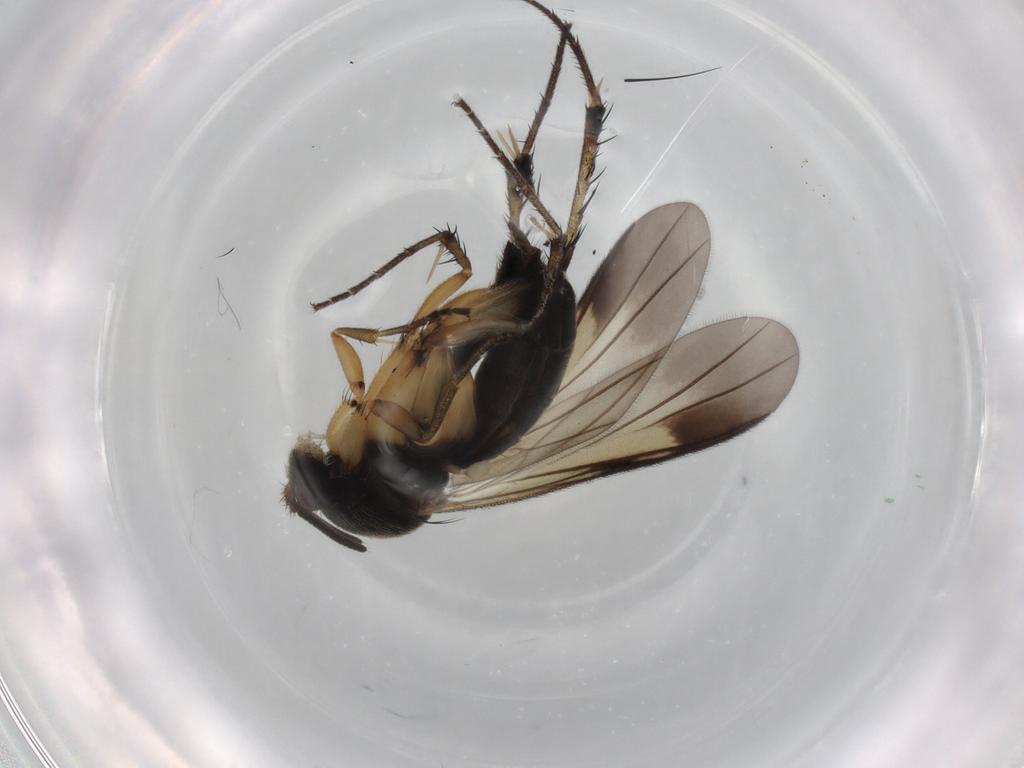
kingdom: Animalia
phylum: Arthropoda
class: Insecta
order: Diptera
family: Mycetophilidae
